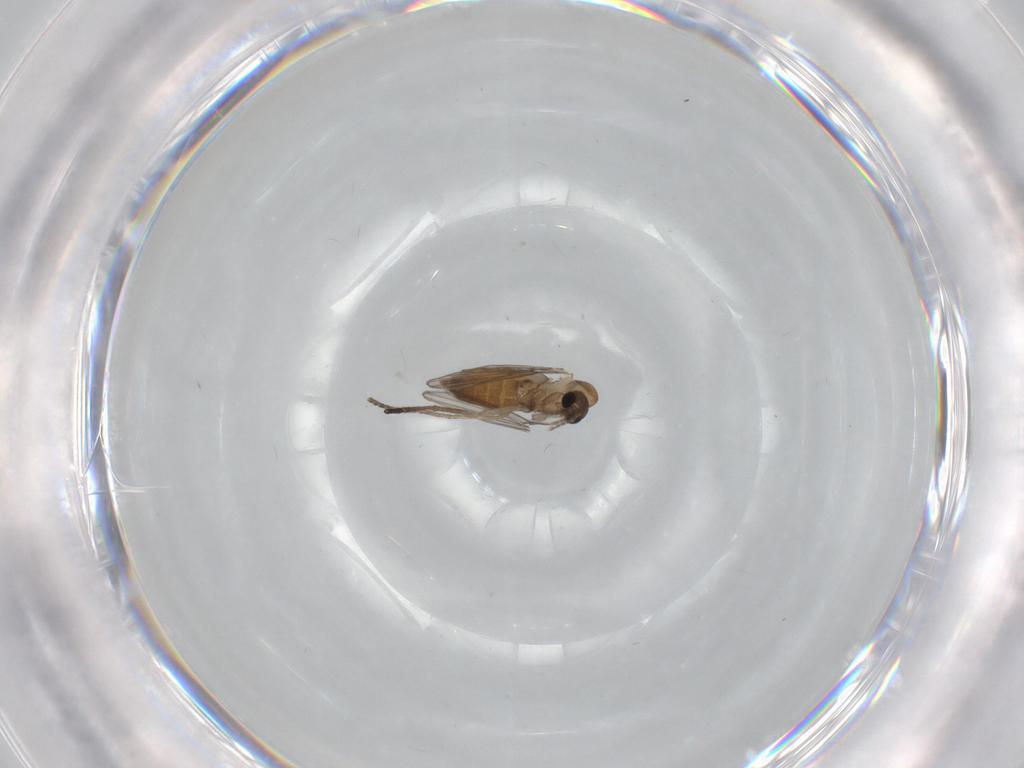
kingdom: Animalia
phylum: Arthropoda
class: Insecta
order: Diptera
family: Psychodidae
